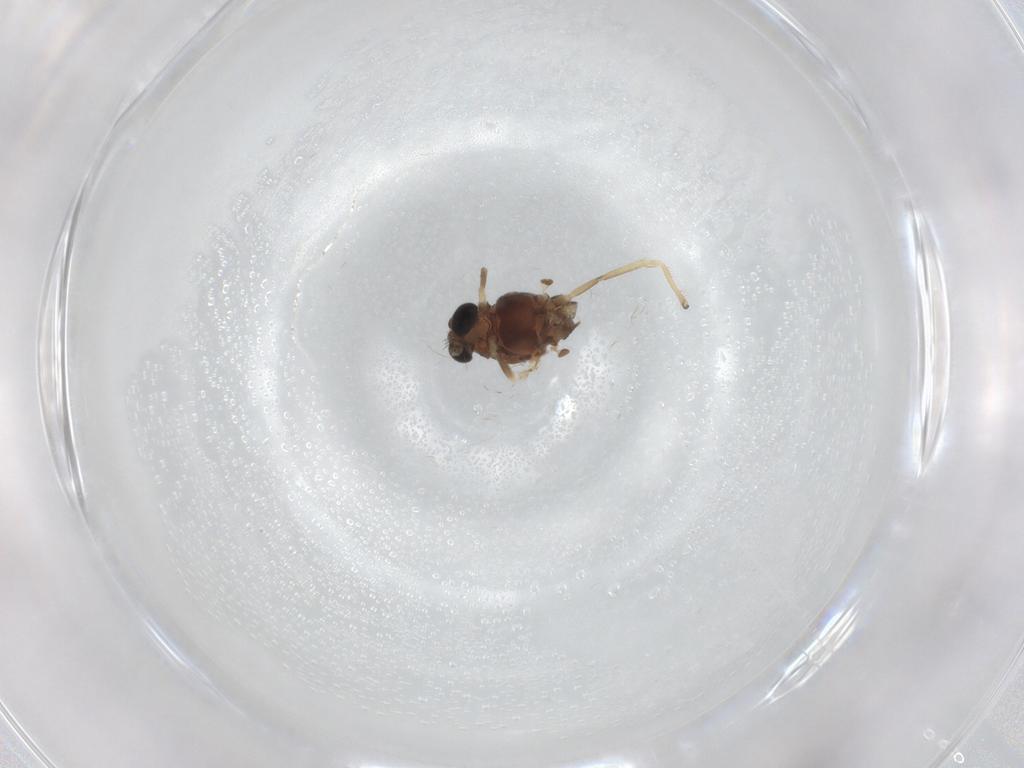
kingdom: Animalia
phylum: Arthropoda
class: Insecta
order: Diptera
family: Chironomidae
